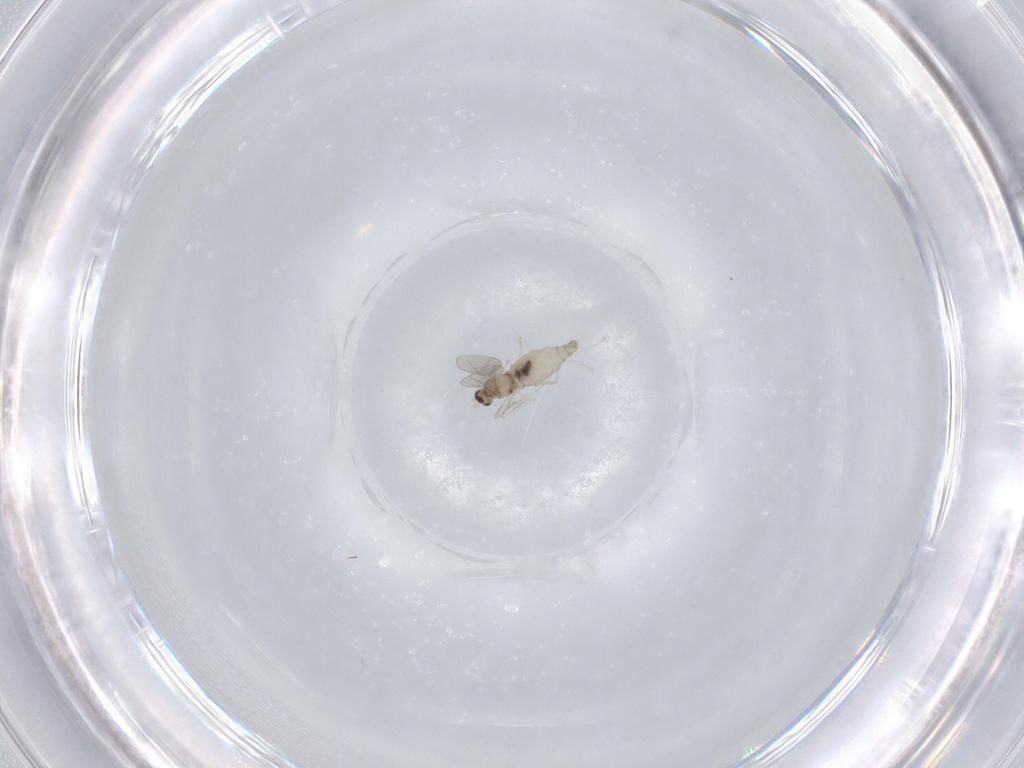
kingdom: Animalia
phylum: Arthropoda
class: Insecta
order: Diptera
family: Cecidomyiidae
